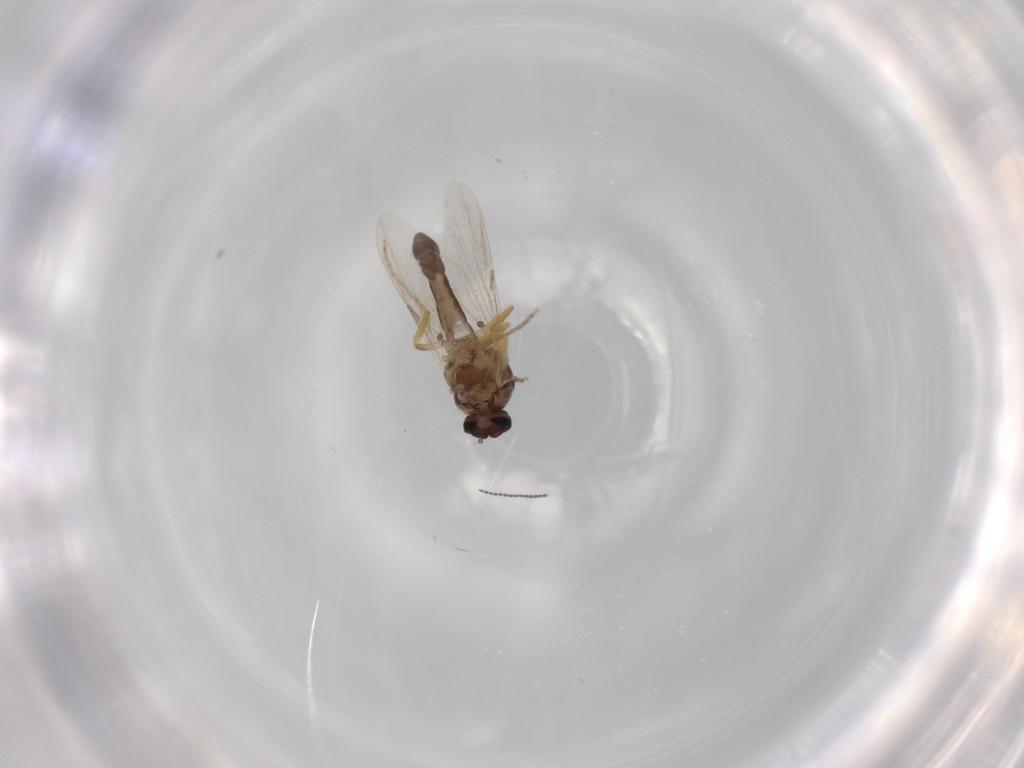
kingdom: Animalia
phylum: Arthropoda
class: Insecta
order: Diptera
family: Ceratopogonidae
